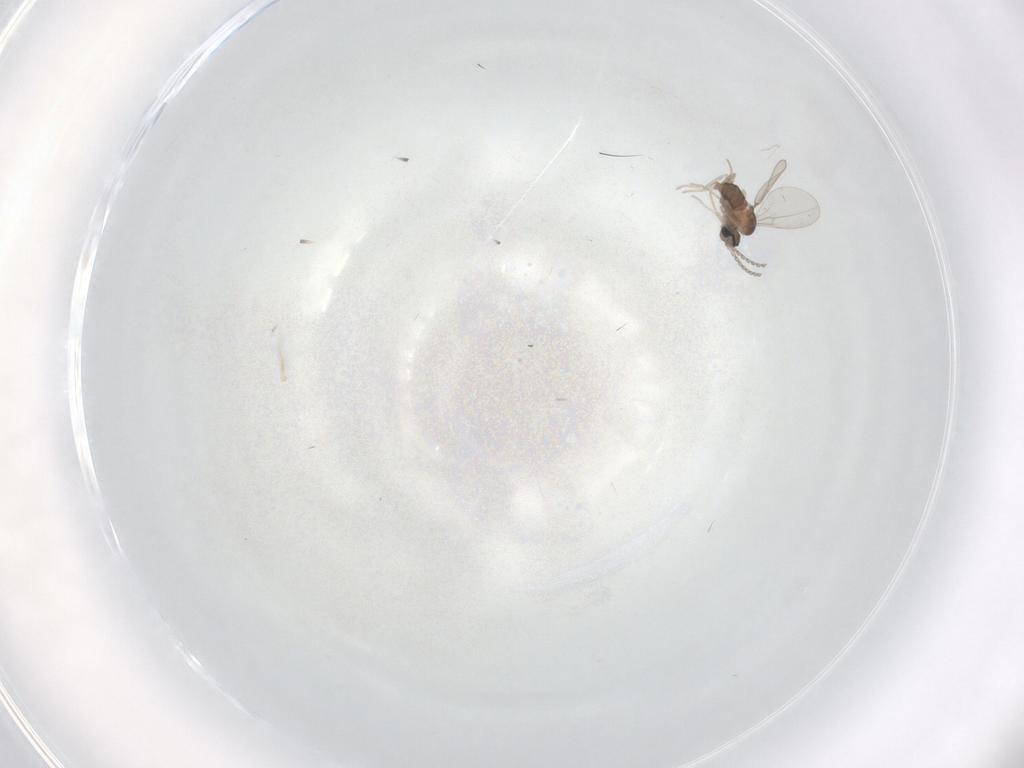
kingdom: Animalia
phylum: Arthropoda
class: Insecta
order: Diptera
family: Cecidomyiidae
